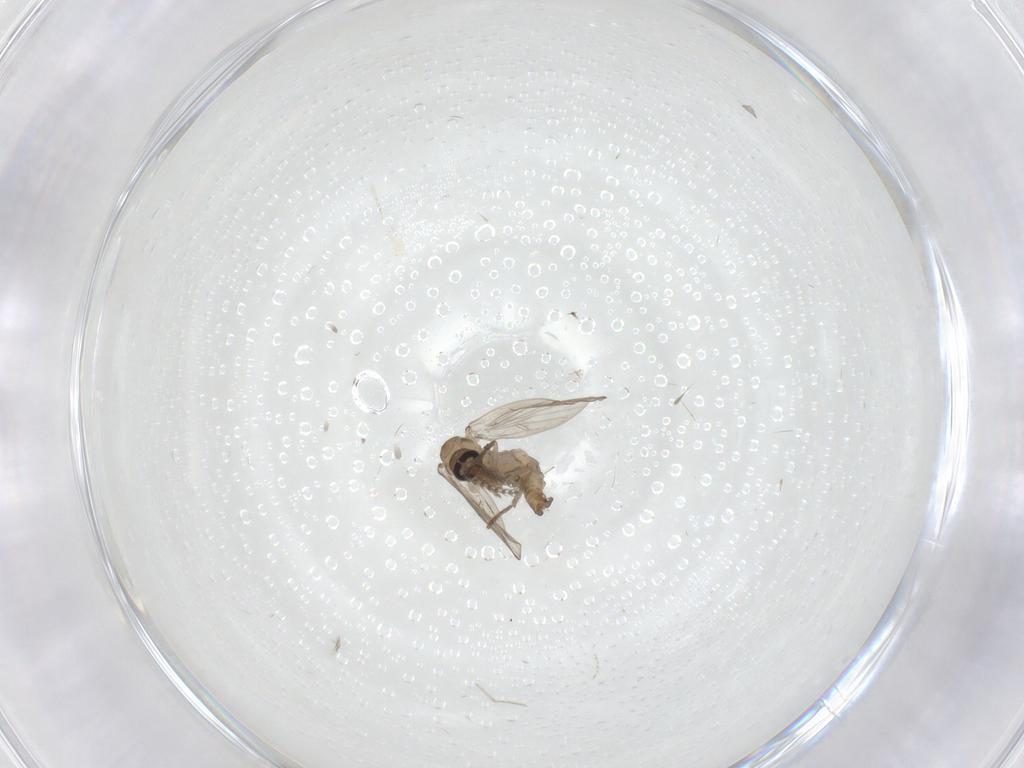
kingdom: Animalia
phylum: Arthropoda
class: Insecta
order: Diptera
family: Psychodidae
